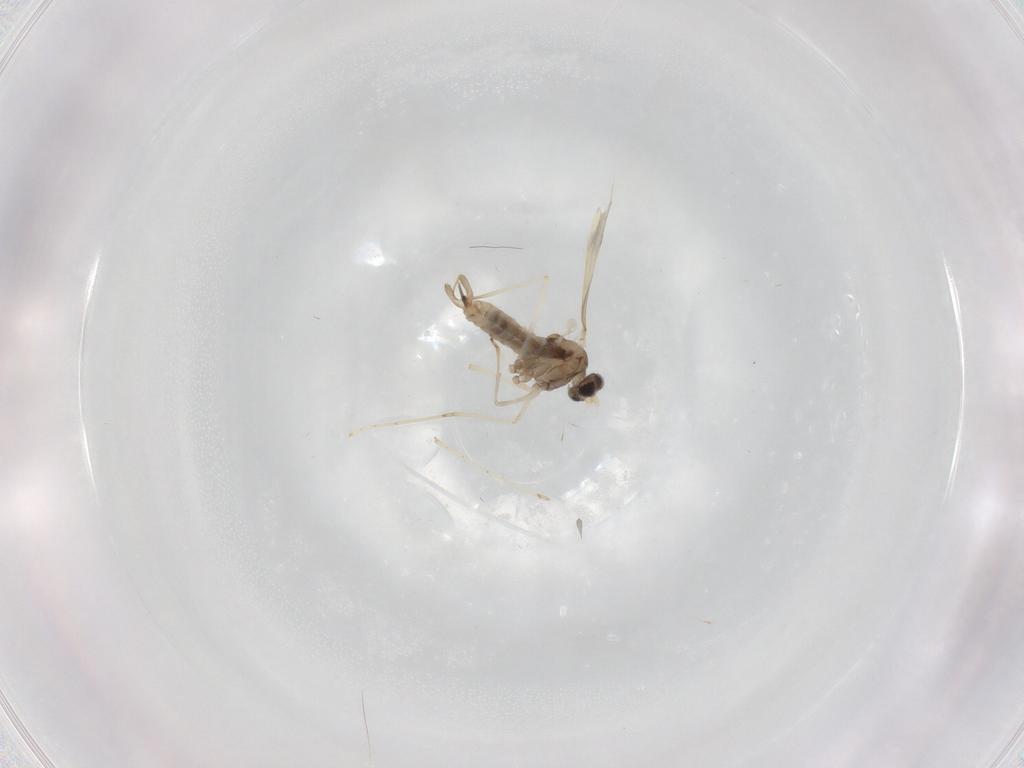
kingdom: Animalia
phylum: Arthropoda
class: Insecta
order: Diptera
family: Cecidomyiidae
